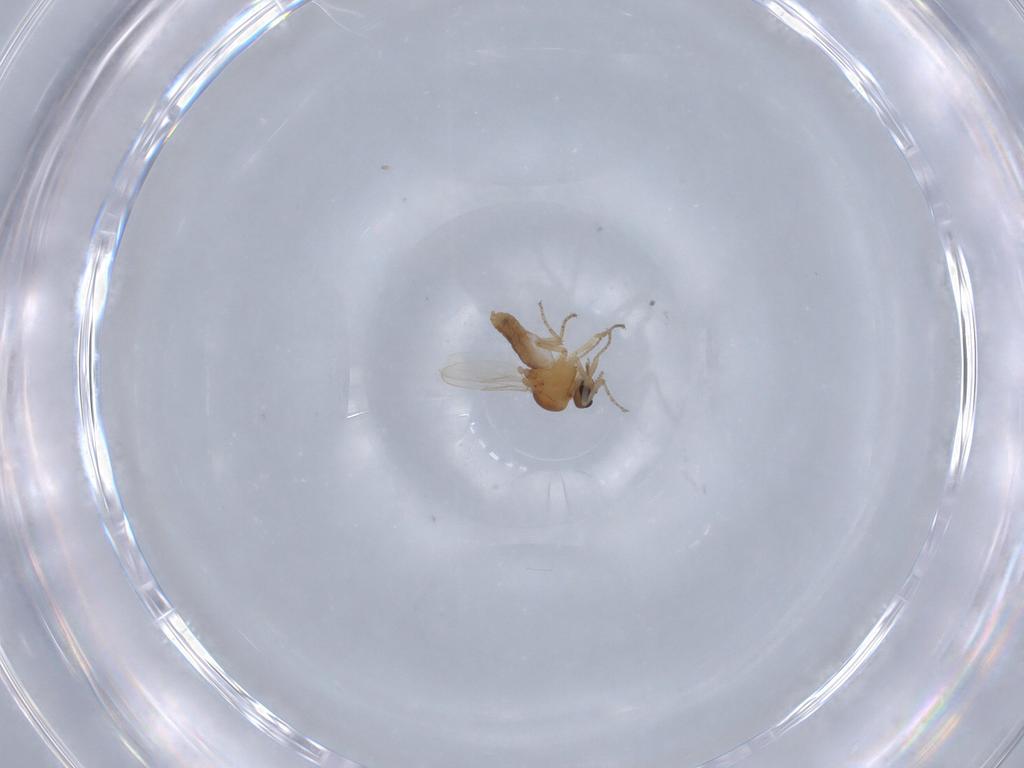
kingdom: Animalia
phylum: Arthropoda
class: Insecta
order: Diptera
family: Ceratopogonidae
